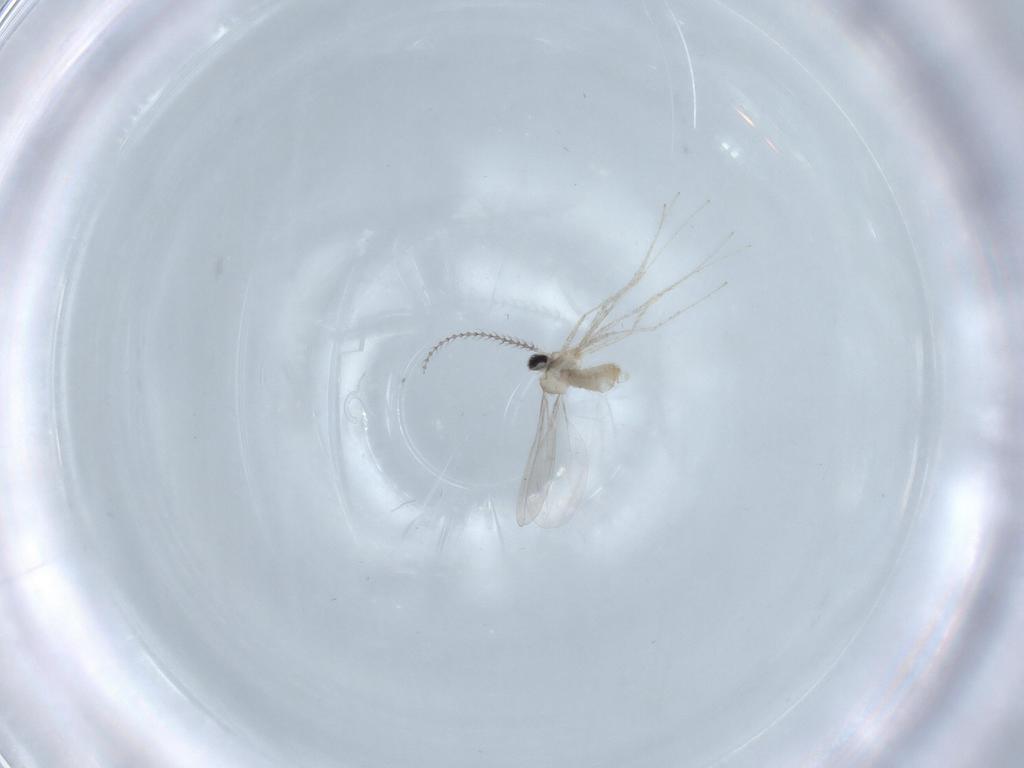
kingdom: Animalia
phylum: Arthropoda
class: Insecta
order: Diptera
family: Cecidomyiidae
